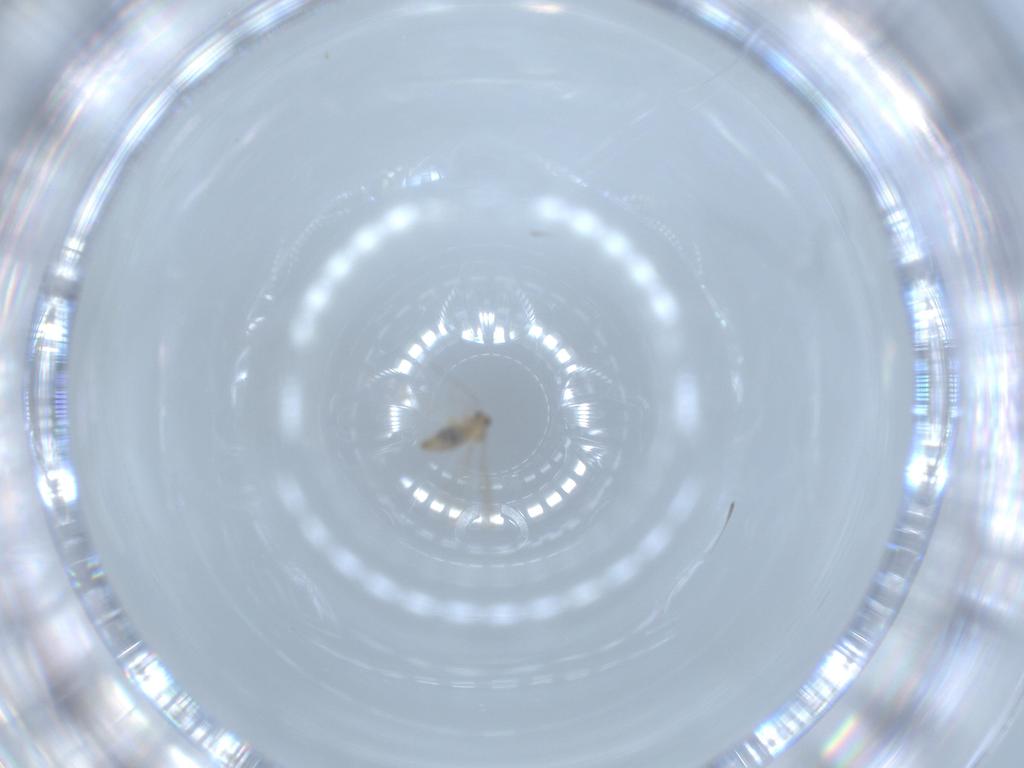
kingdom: Animalia
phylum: Arthropoda
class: Insecta
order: Diptera
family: Cecidomyiidae
